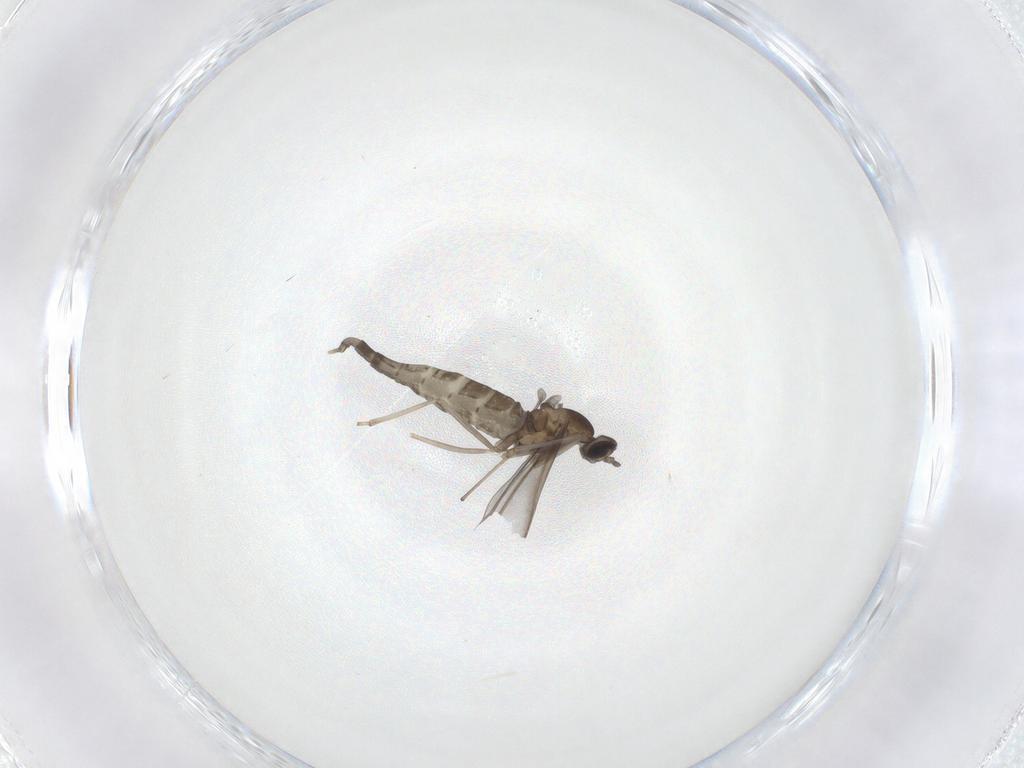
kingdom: Animalia
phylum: Arthropoda
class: Insecta
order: Diptera
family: Cecidomyiidae
